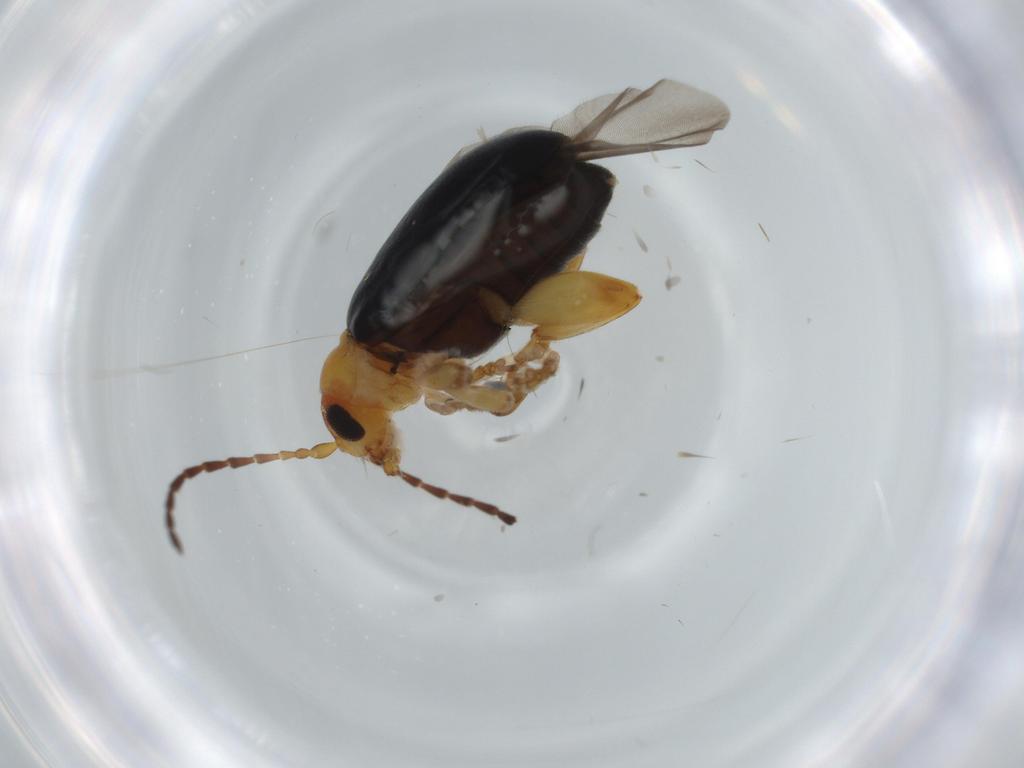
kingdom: Animalia
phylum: Arthropoda
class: Insecta
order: Coleoptera
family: Chrysomelidae
